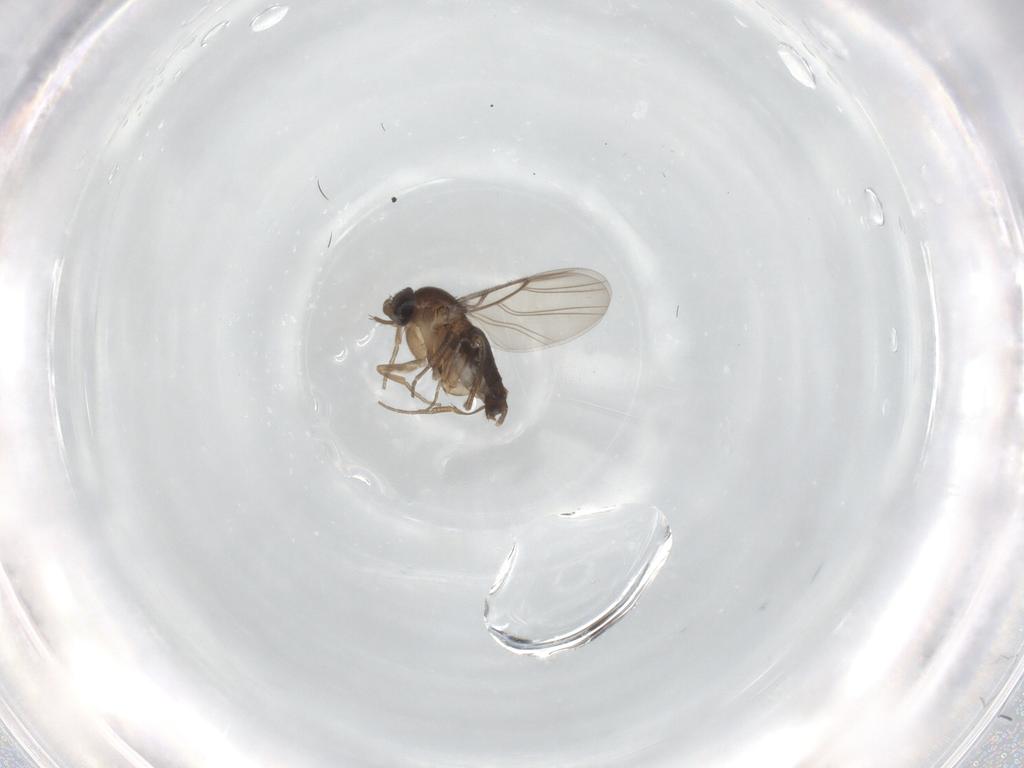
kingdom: Animalia
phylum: Arthropoda
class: Insecta
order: Diptera
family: Phoridae
